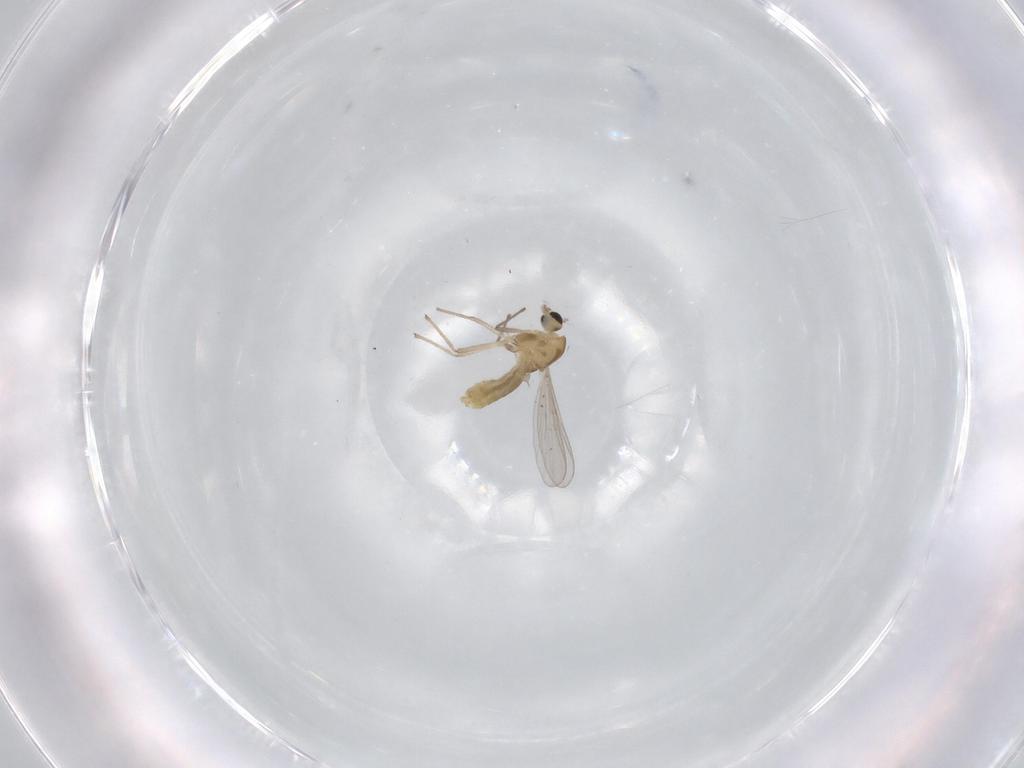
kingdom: Animalia
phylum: Arthropoda
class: Insecta
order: Diptera
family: Chironomidae
